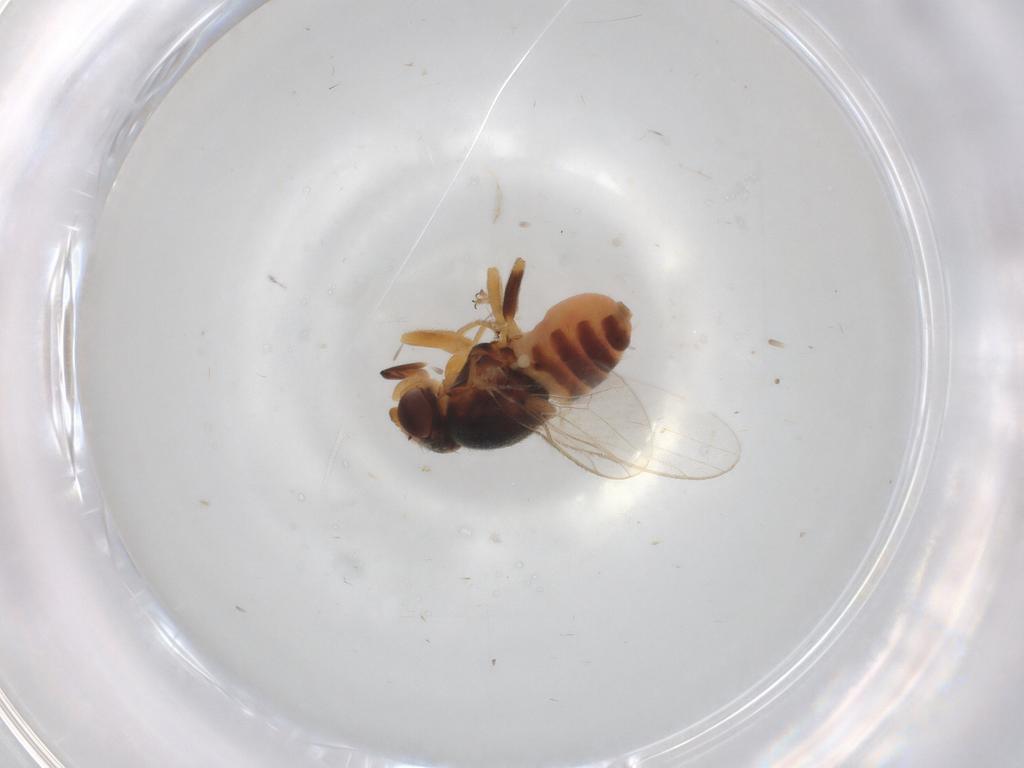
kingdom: Animalia
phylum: Arthropoda
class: Insecta
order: Diptera
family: Chloropidae
